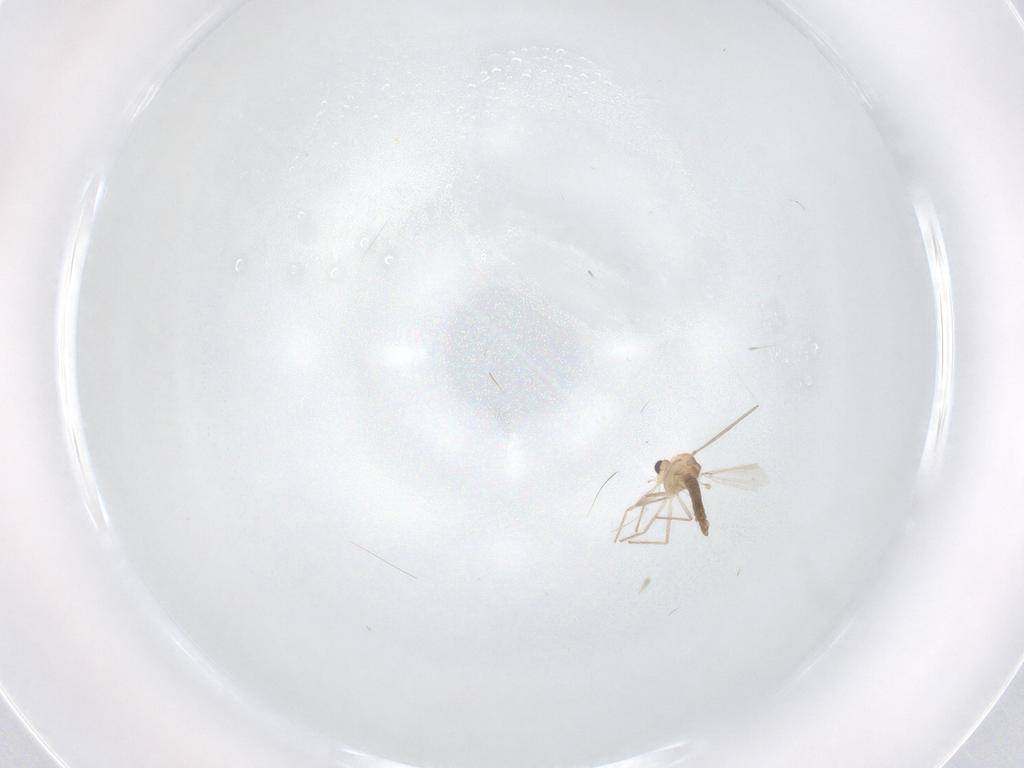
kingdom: Animalia
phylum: Arthropoda
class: Insecta
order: Diptera
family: Chironomidae
